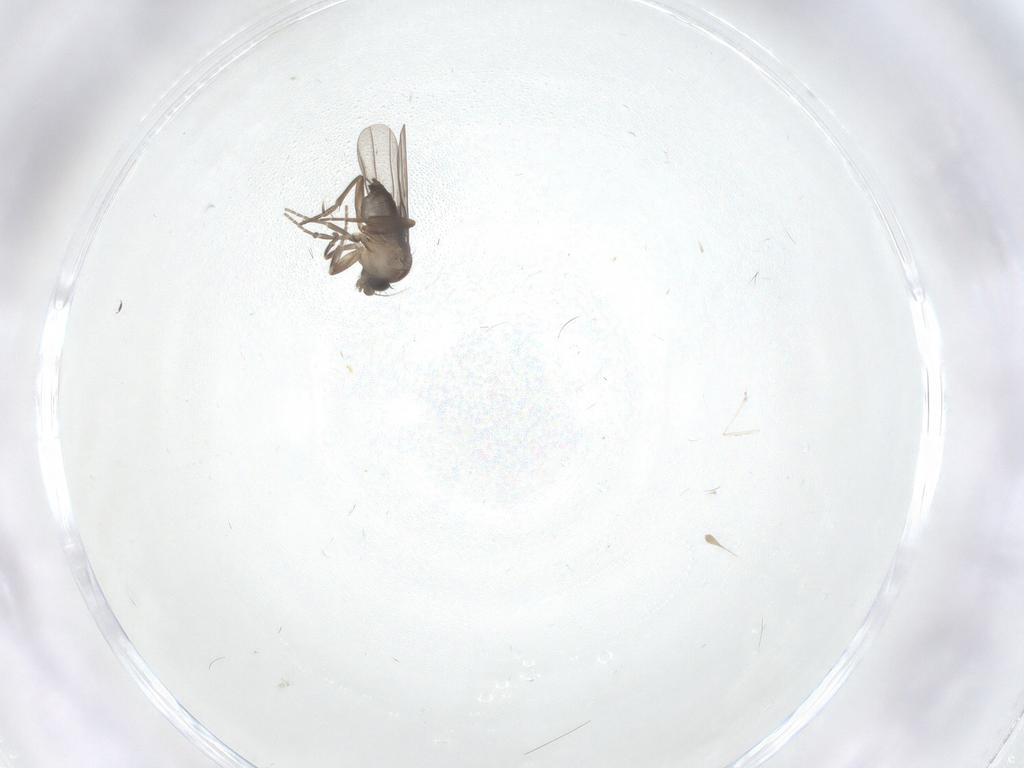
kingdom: Animalia
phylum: Arthropoda
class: Insecta
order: Diptera
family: Cecidomyiidae
